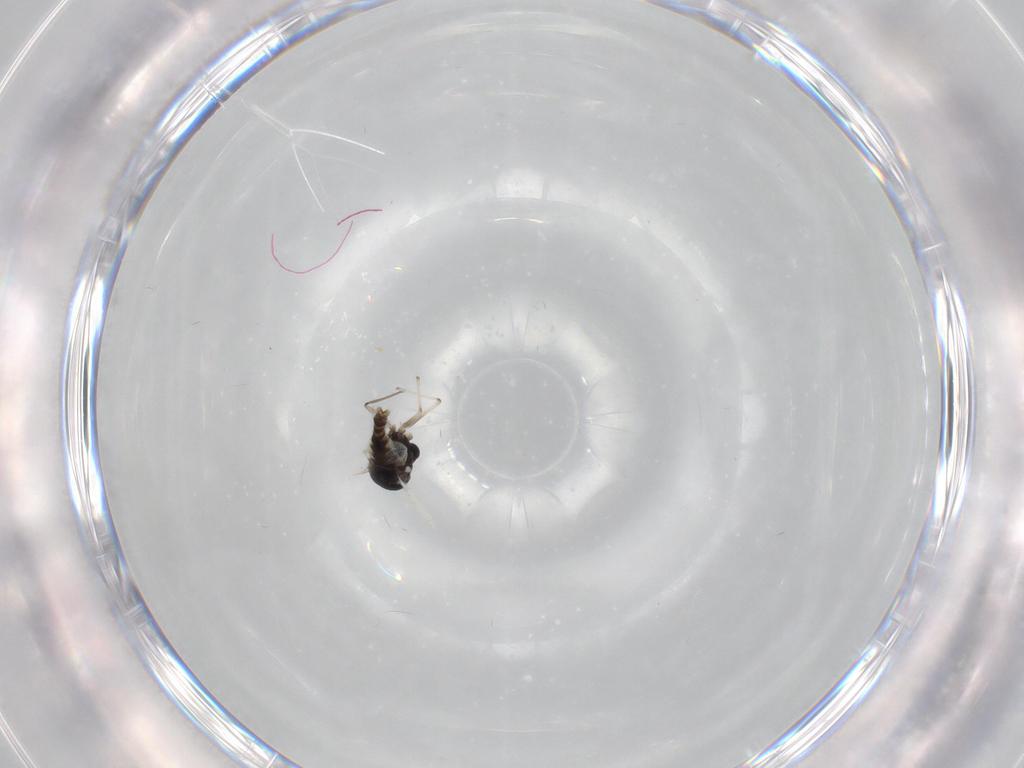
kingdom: Animalia
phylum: Arthropoda
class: Insecta
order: Diptera
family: Chironomidae
